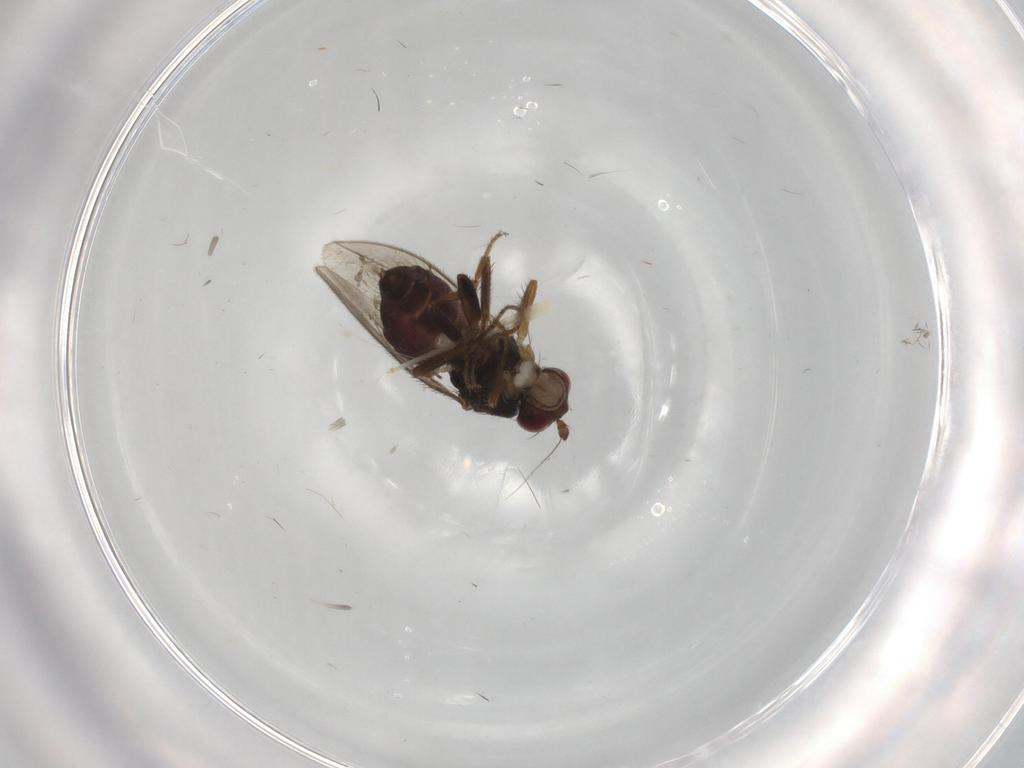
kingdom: Animalia
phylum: Arthropoda
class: Insecta
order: Diptera
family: Sphaeroceridae
